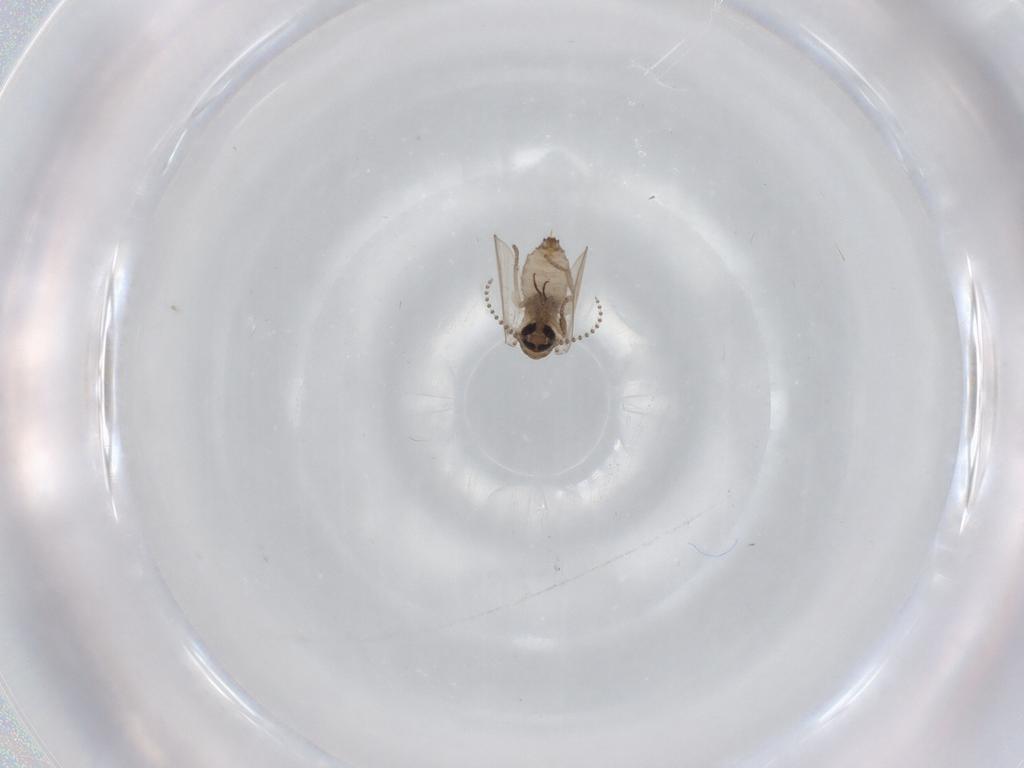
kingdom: Animalia
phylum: Arthropoda
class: Insecta
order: Diptera
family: Psychodidae
